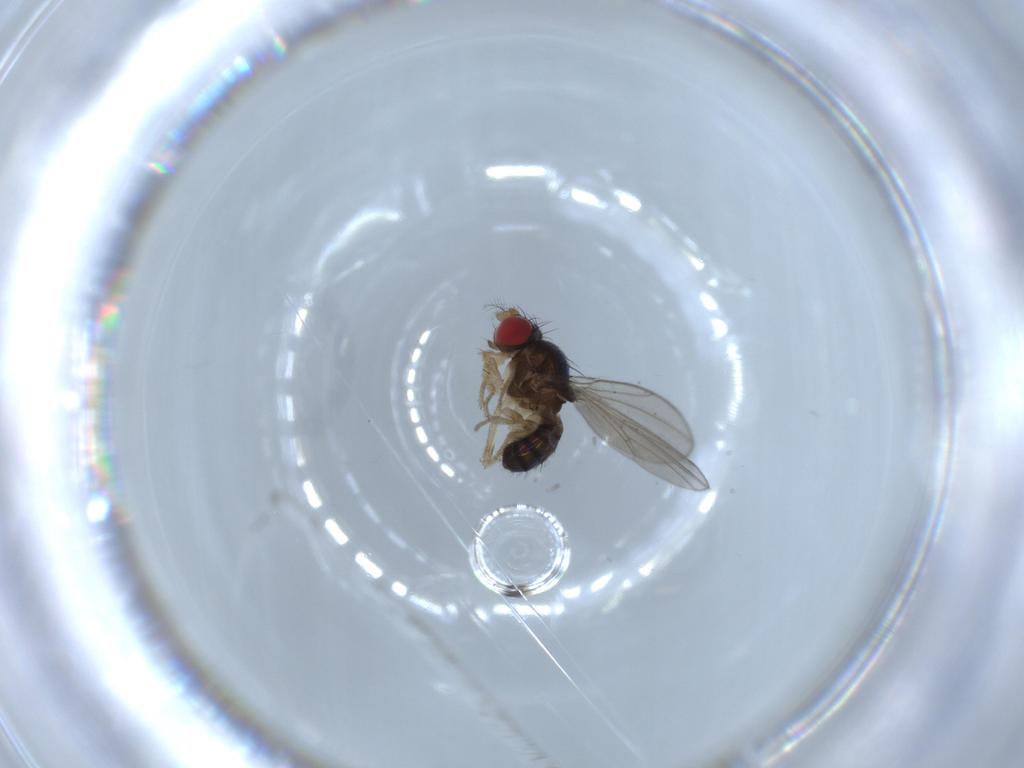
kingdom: Animalia
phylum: Arthropoda
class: Insecta
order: Diptera
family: Drosophilidae
